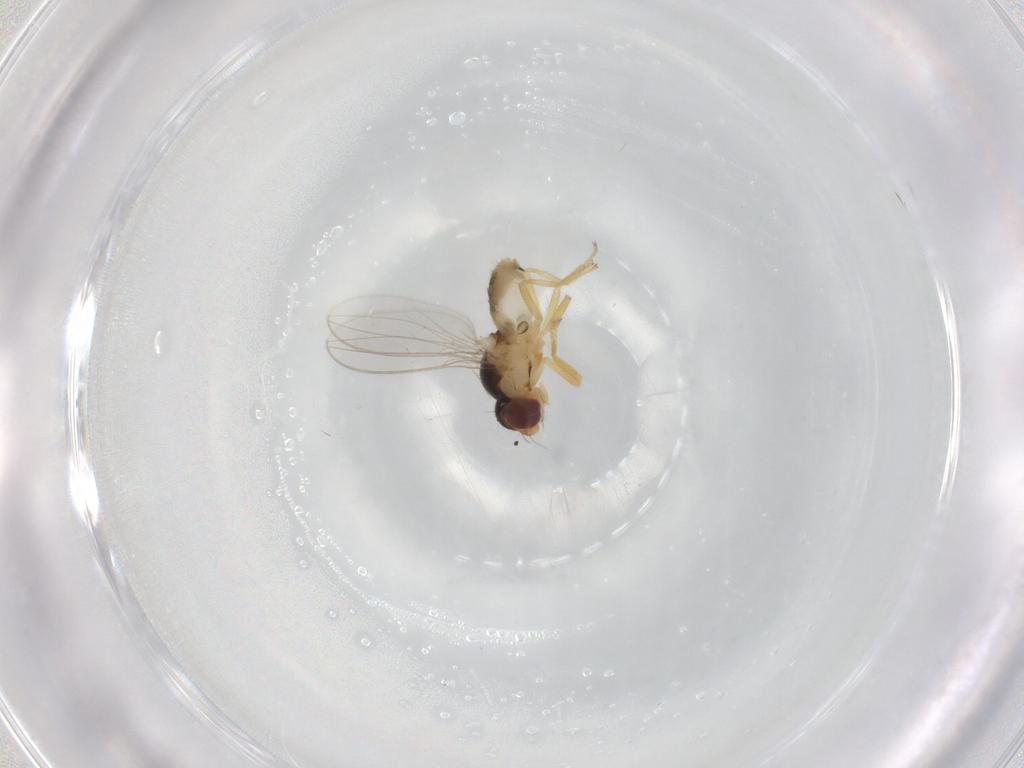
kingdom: Animalia
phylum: Arthropoda
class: Insecta
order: Diptera
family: Asteiidae
